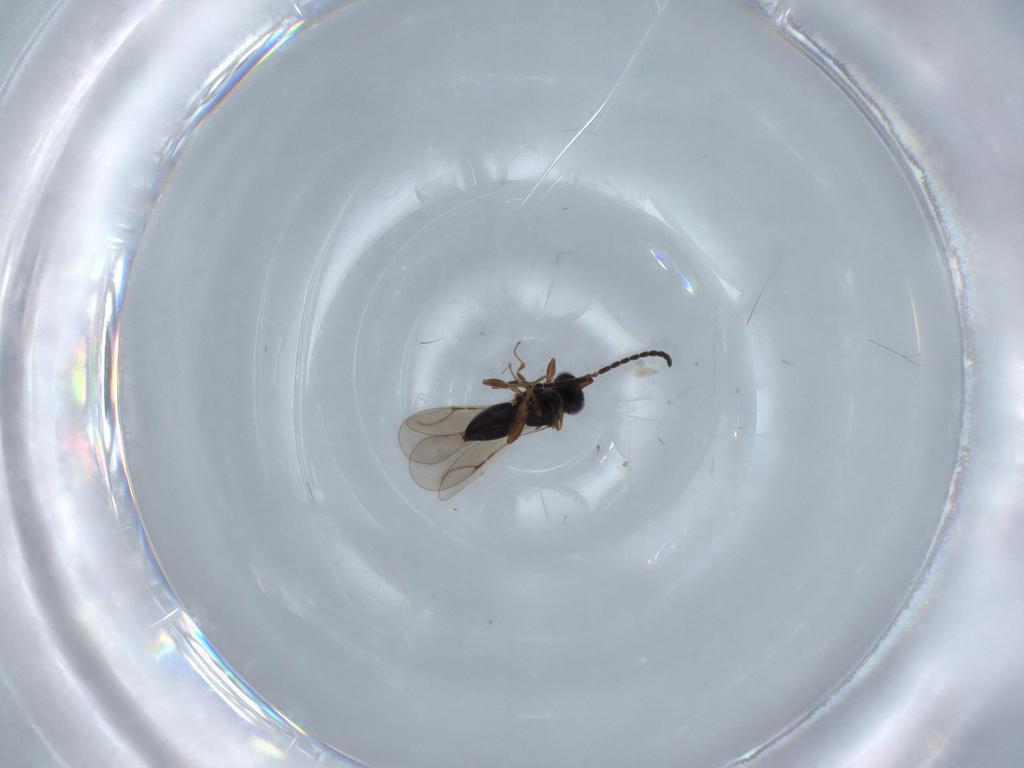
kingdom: Animalia
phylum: Arthropoda
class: Insecta
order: Hymenoptera
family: Ceraphronidae
